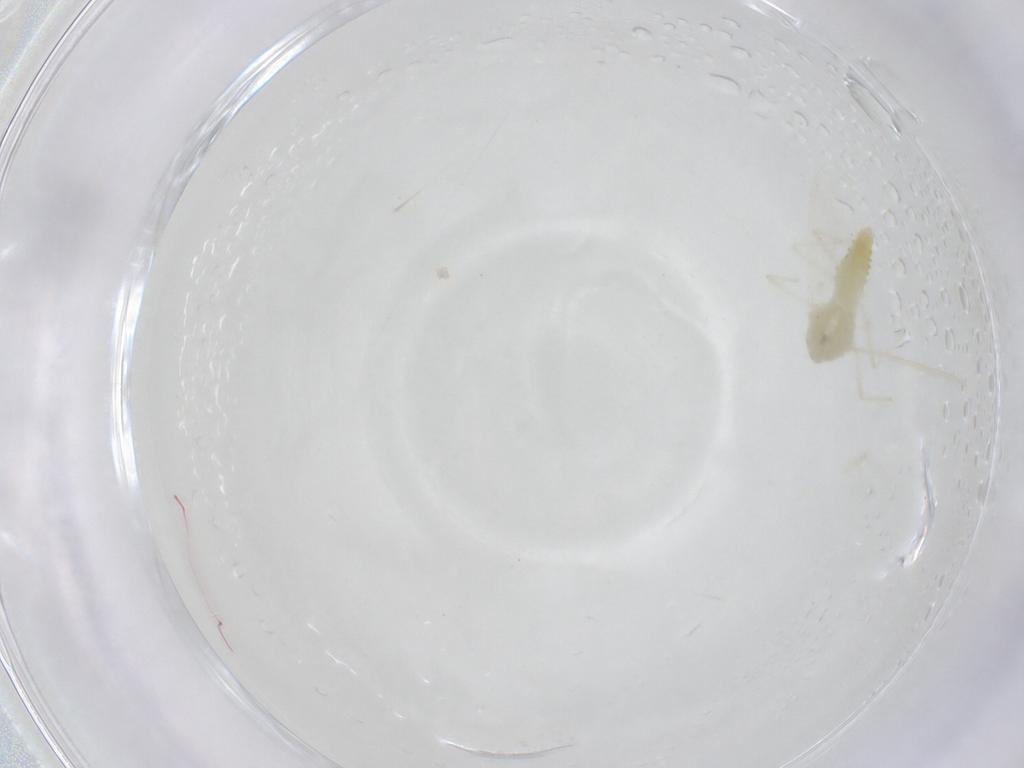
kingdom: Animalia
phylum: Arthropoda
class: Insecta
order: Diptera
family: Chironomidae
